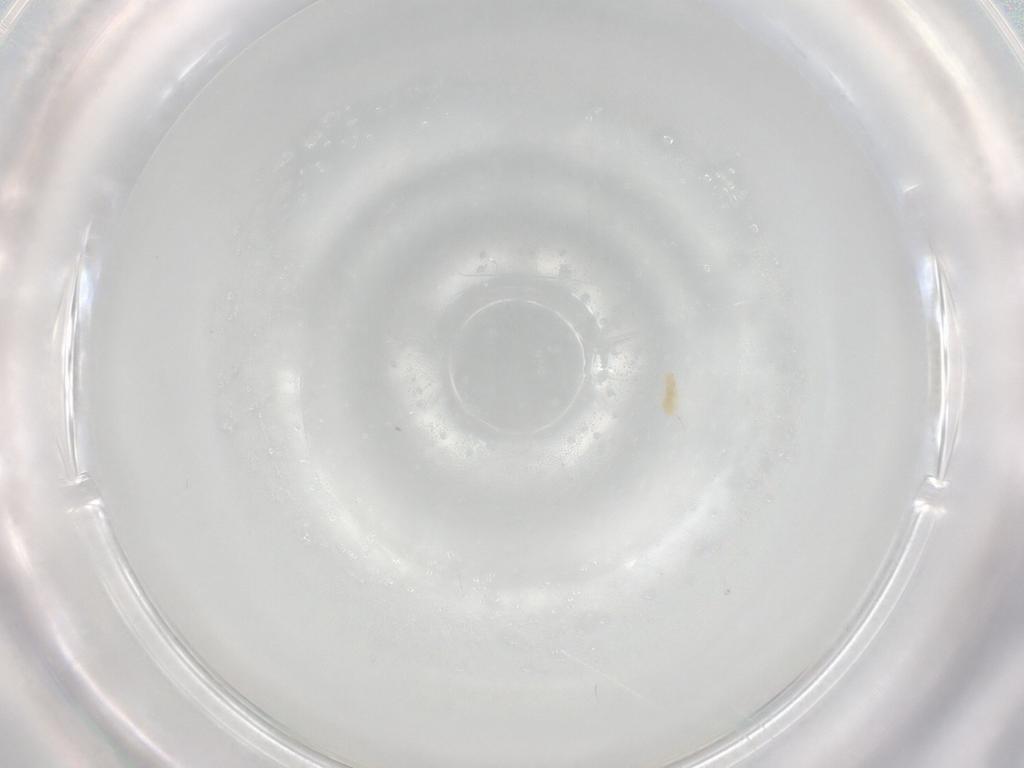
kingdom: Animalia
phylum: Arthropoda
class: Arachnida
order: Trombidiformes
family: Eupodidae
